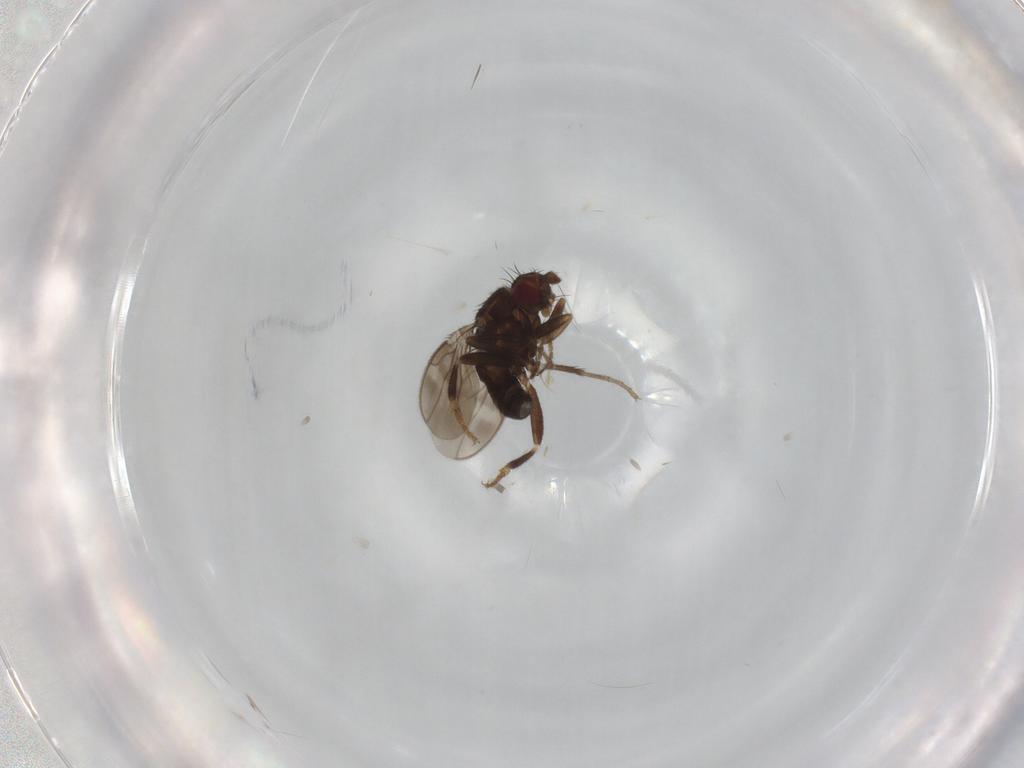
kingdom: Animalia
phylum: Arthropoda
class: Insecta
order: Diptera
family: Sphaeroceridae
